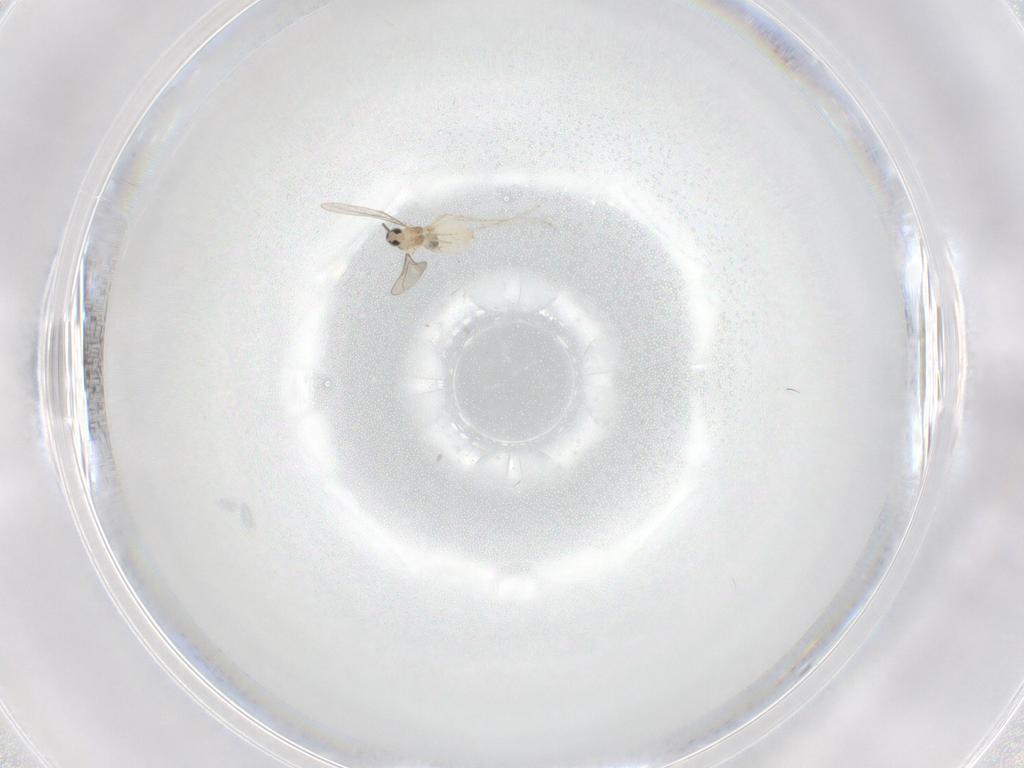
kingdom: Animalia
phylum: Arthropoda
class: Insecta
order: Diptera
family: Cecidomyiidae
